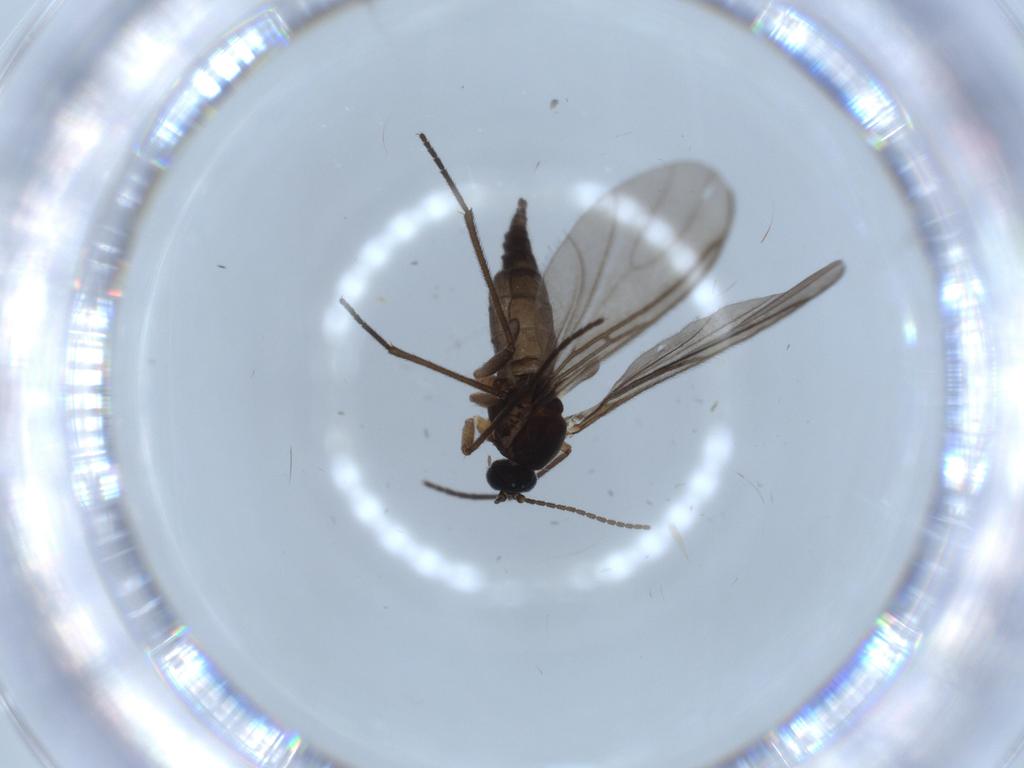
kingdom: Animalia
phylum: Arthropoda
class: Insecta
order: Diptera
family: Sciaridae
